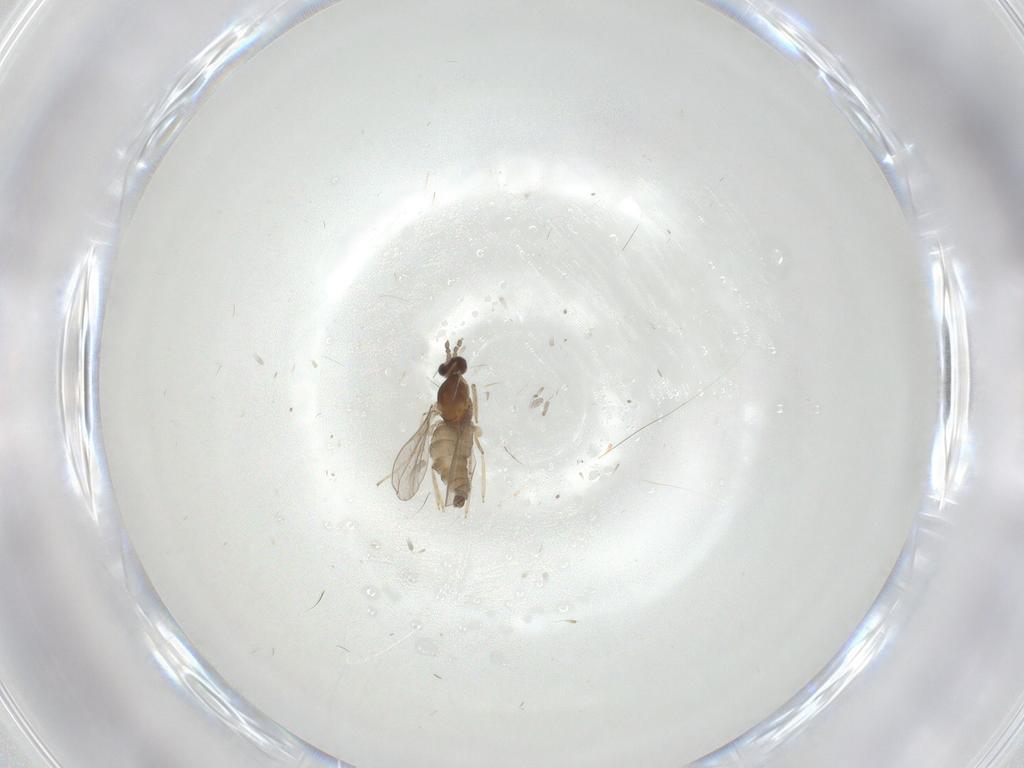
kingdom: Animalia
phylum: Arthropoda
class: Insecta
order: Diptera
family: Cecidomyiidae
